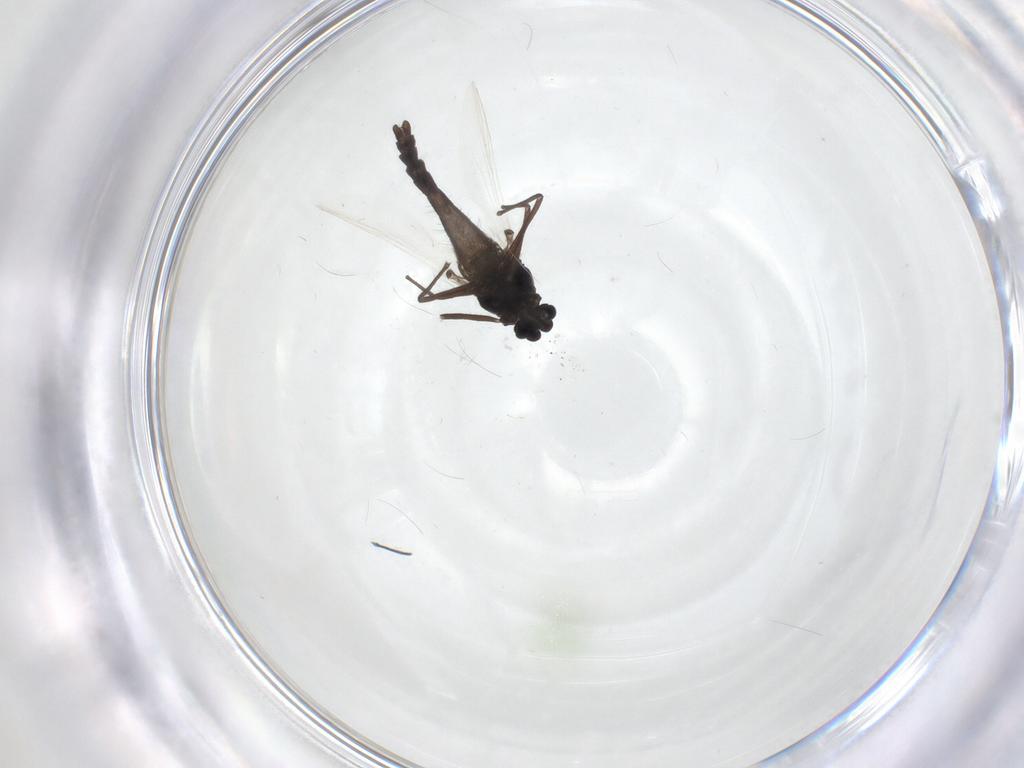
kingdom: Animalia
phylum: Arthropoda
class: Insecta
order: Diptera
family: Chironomidae
